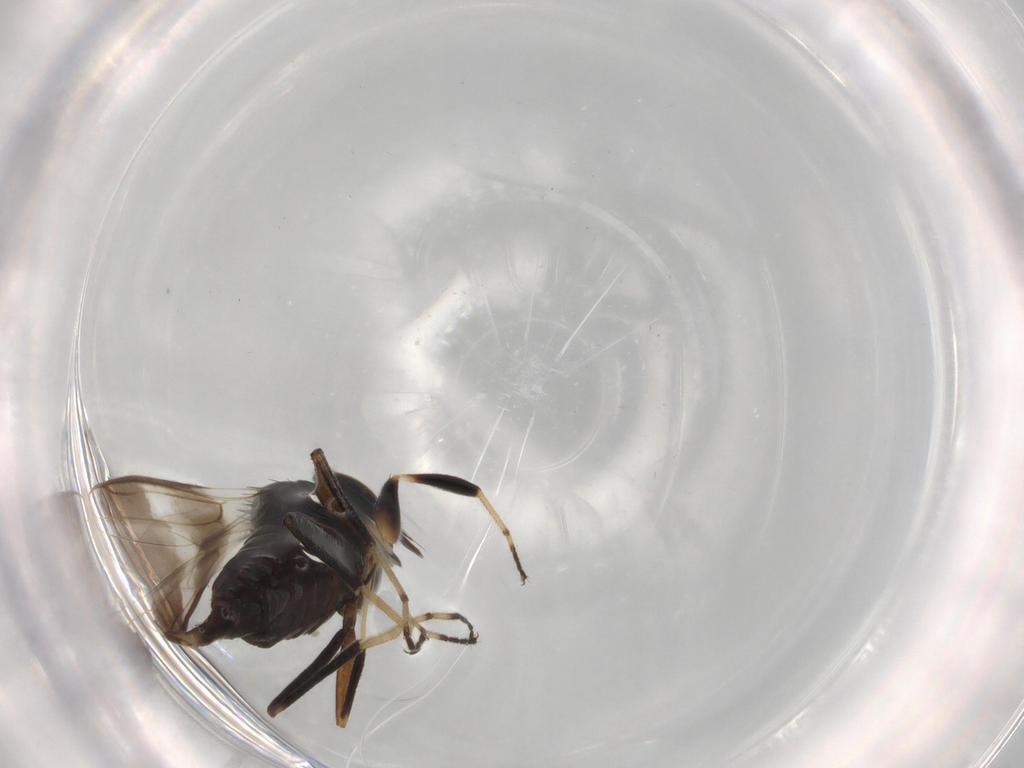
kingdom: Animalia
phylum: Arthropoda
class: Insecta
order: Diptera
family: Hybotidae
